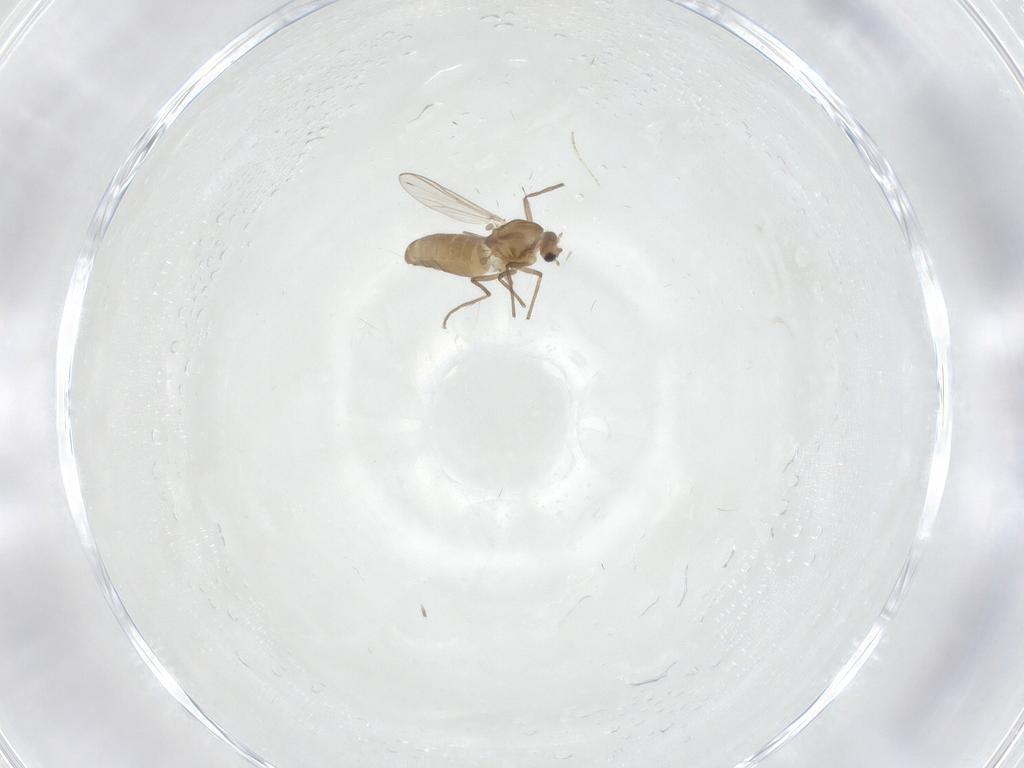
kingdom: Animalia
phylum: Arthropoda
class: Insecta
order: Diptera
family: Chironomidae
